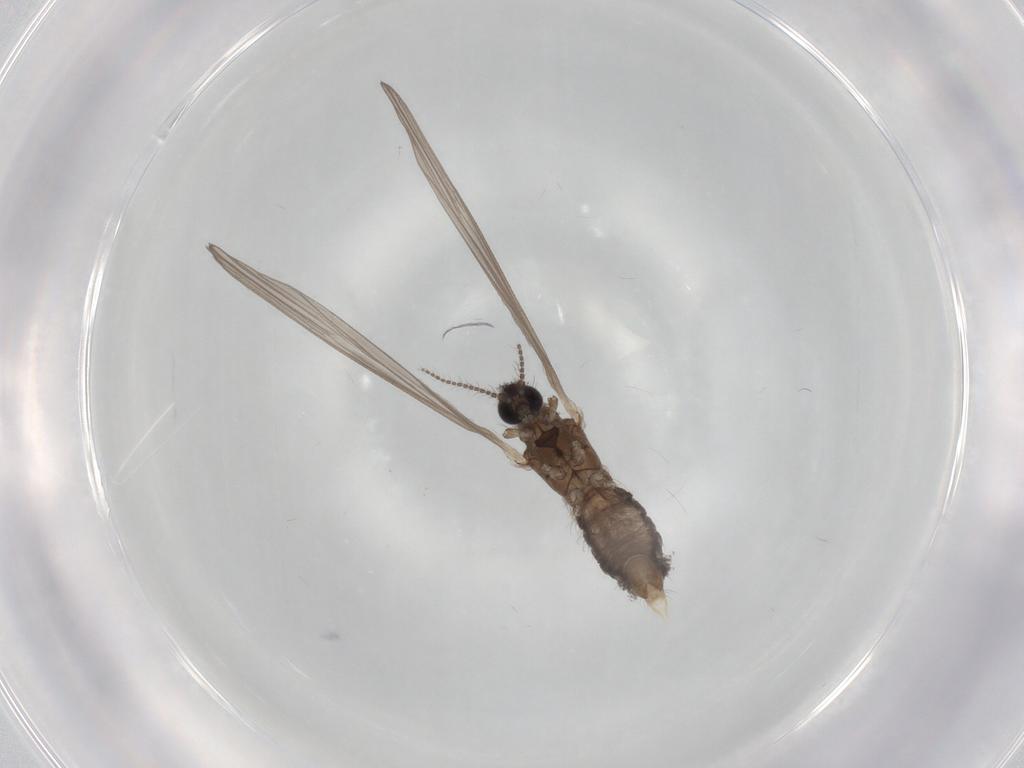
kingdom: Animalia
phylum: Arthropoda
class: Insecta
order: Diptera
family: Limoniidae
